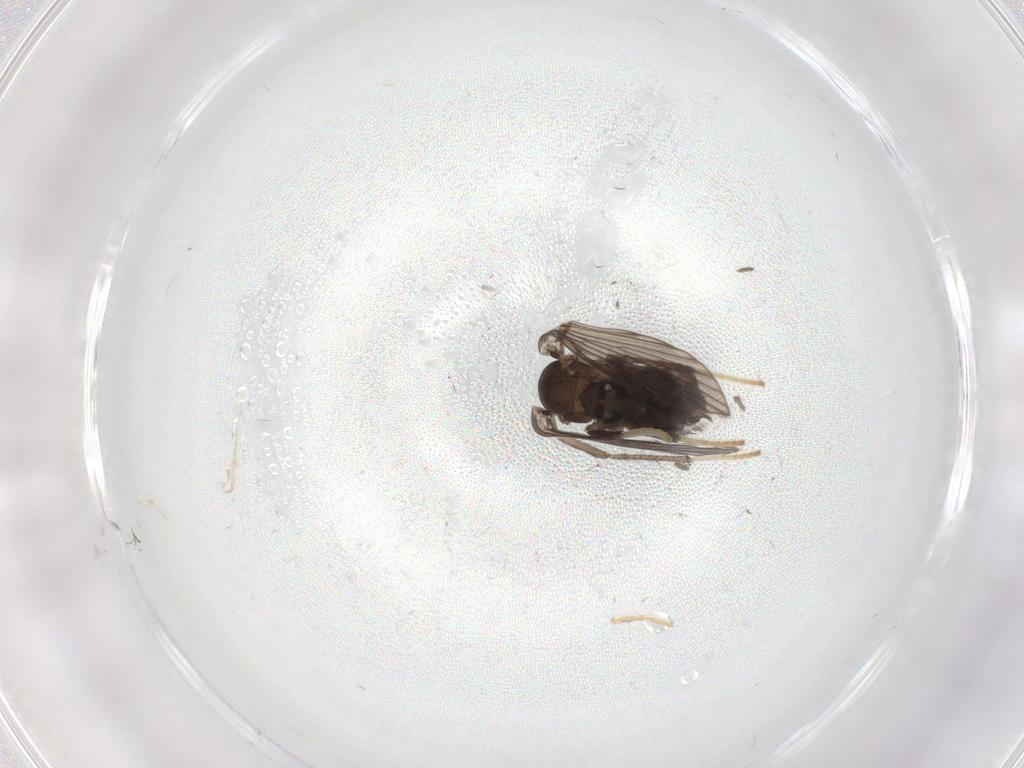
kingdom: Animalia
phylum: Arthropoda
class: Insecta
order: Diptera
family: Psychodidae
